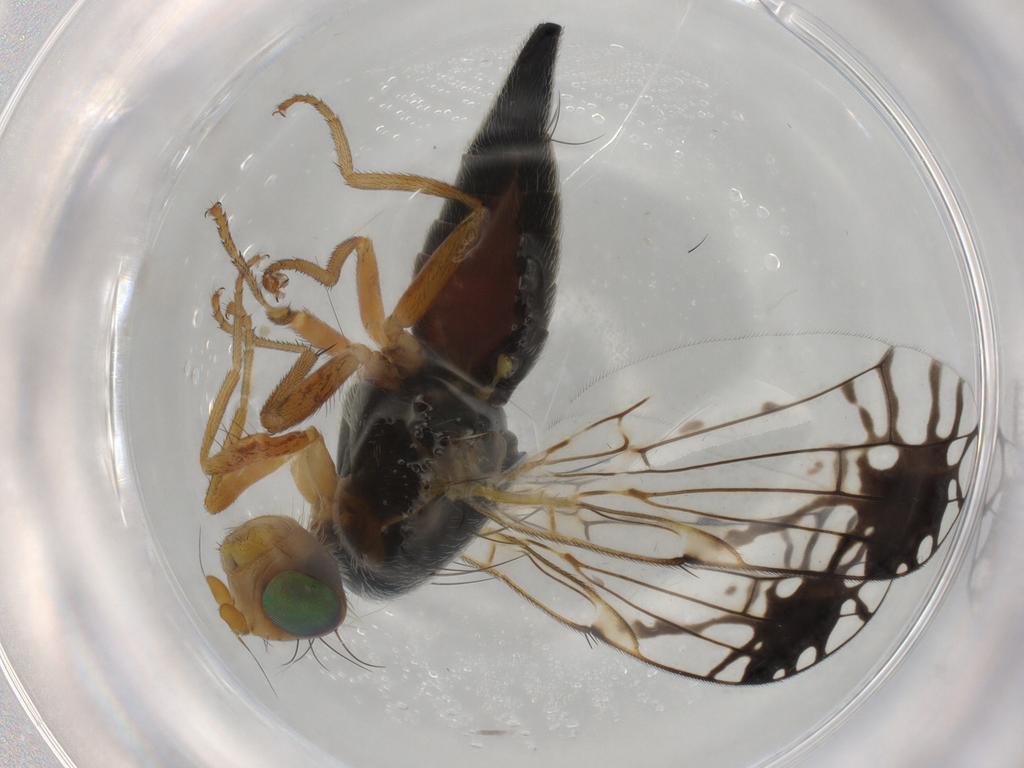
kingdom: Animalia
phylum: Arthropoda
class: Insecta
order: Diptera
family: Tephritidae
